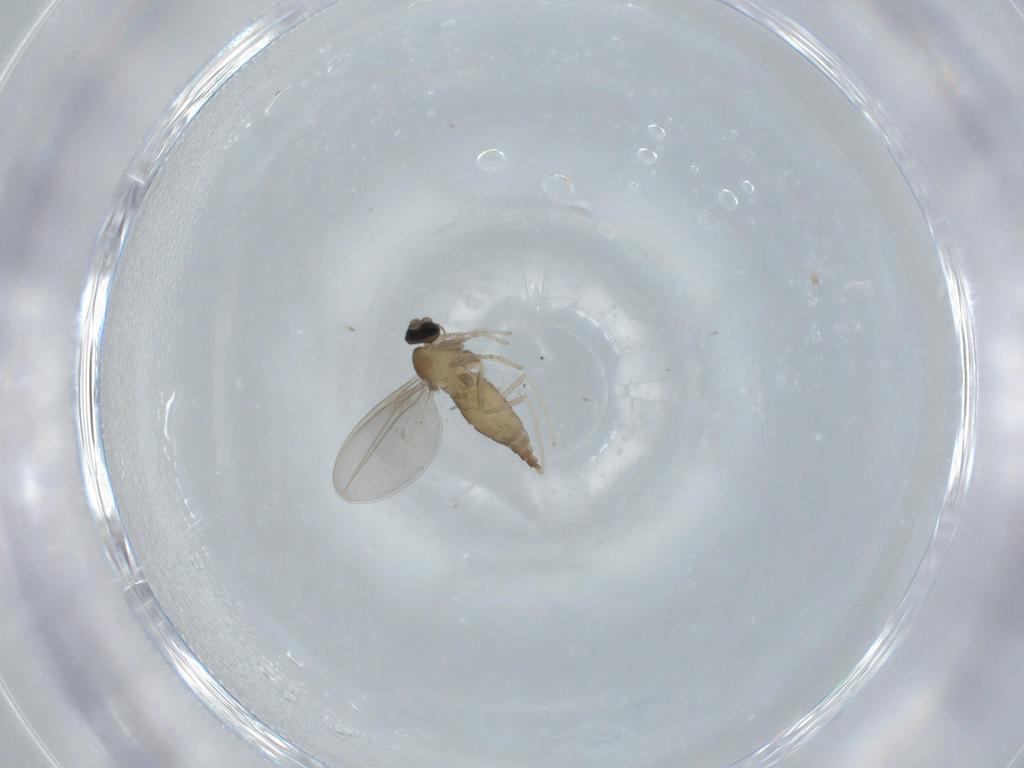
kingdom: Animalia
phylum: Arthropoda
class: Insecta
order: Diptera
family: Cecidomyiidae
